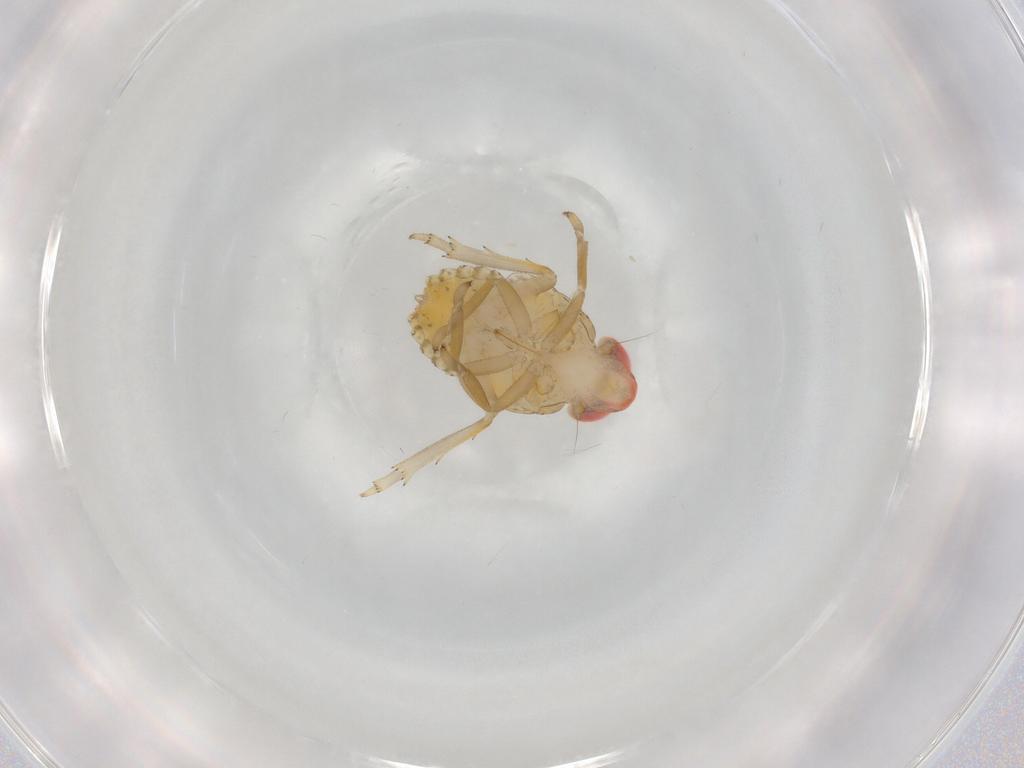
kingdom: Animalia
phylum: Arthropoda
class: Insecta
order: Hemiptera
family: Issidae
